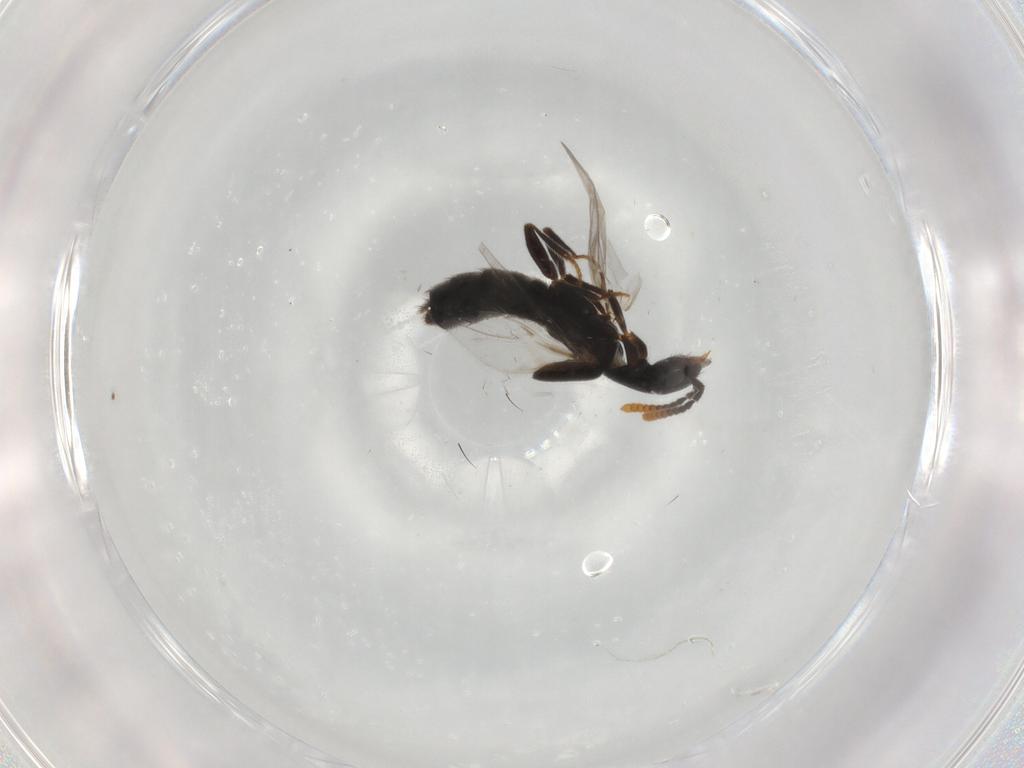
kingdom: Animalia
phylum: Arthropoda
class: Insecta
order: Coleoptera
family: Staphylinidae
